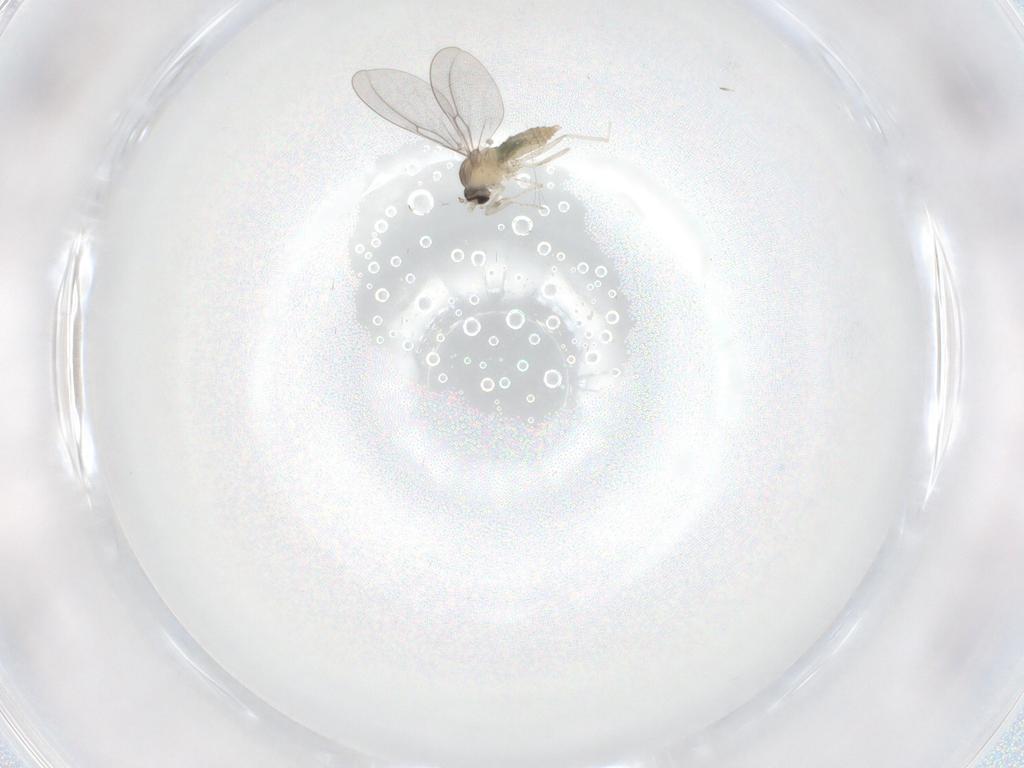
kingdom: Animalia
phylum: Arthropoda
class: Insecta
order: Diptera
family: Cecidomyiidae
